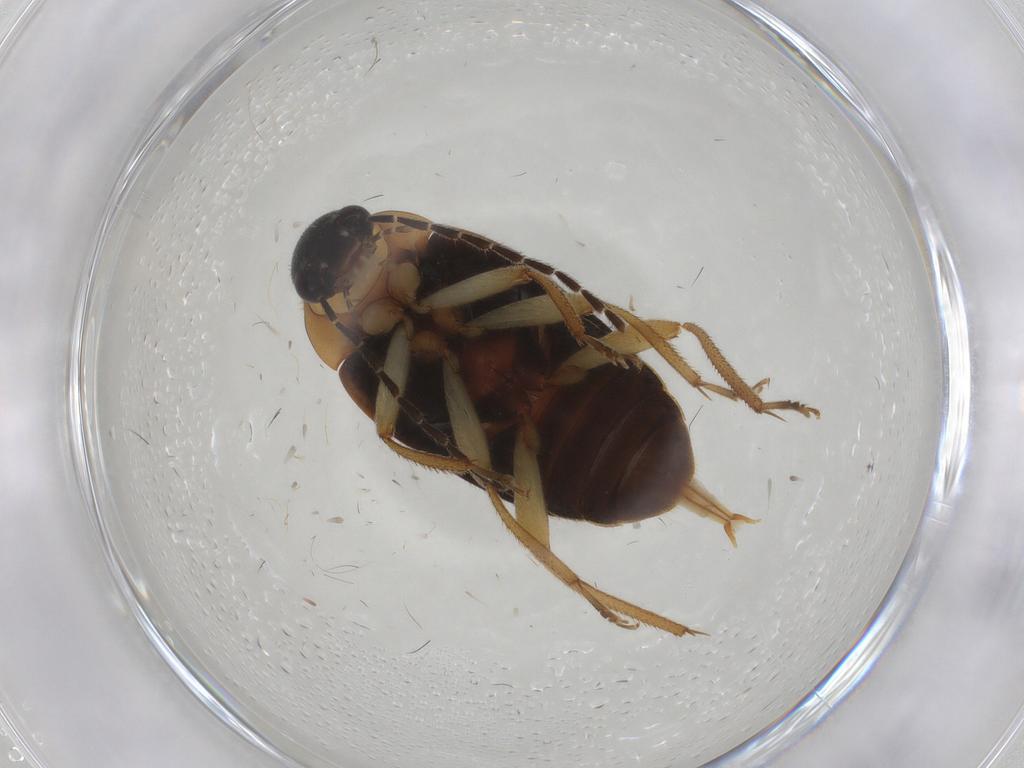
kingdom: Animalia
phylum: Arthropoda
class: Insecta
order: Coleoptera
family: Ptilodactylidae
